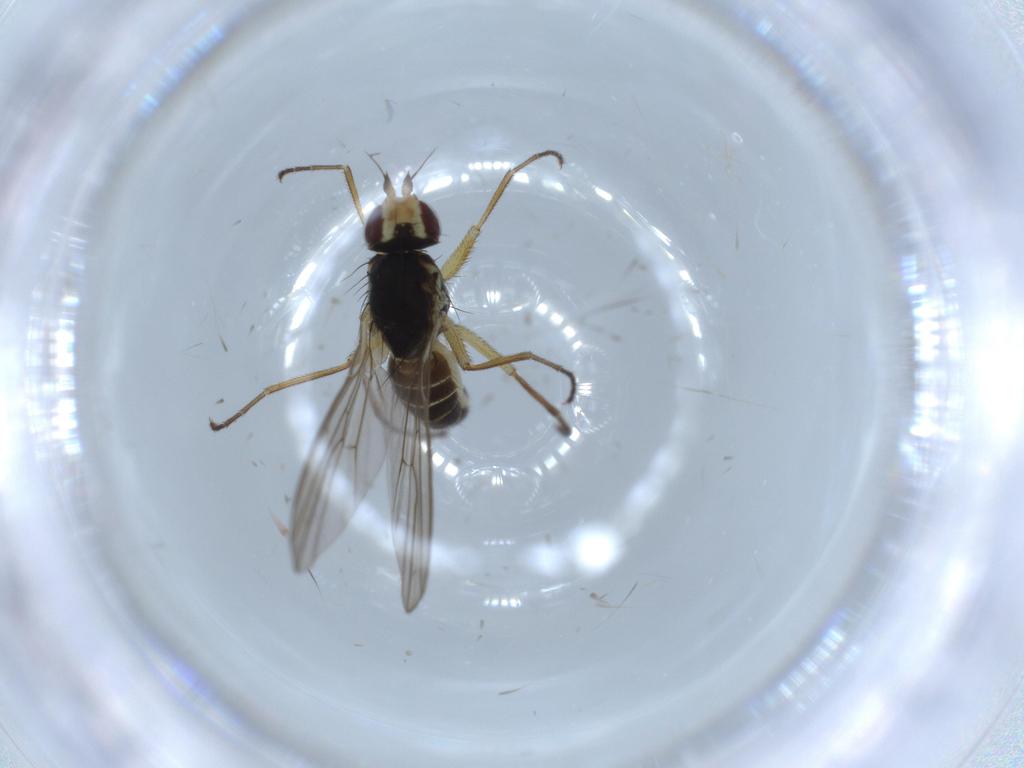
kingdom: Animalia
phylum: Arthropoda
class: Insecta
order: Diptera
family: Agromyzidae
